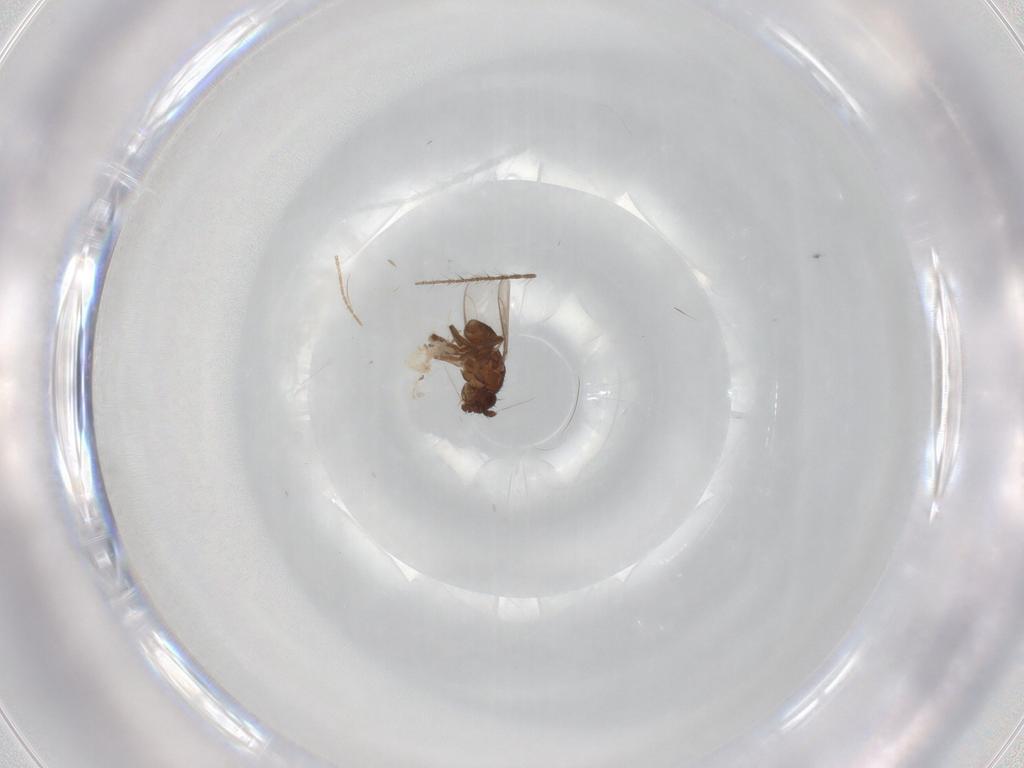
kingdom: Animalia
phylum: Arthropoda
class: Insecta
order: Diptera
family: Ceratopogonidae
